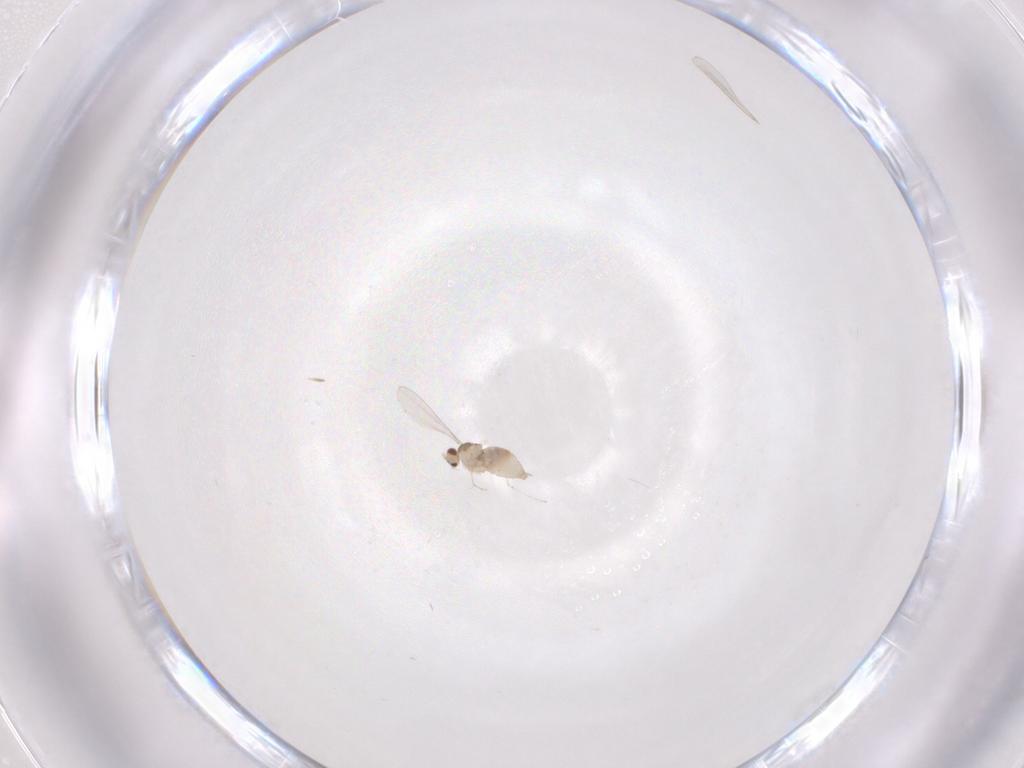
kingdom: Animalia
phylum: Arthropoda
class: Insecta
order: Diptera
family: Cecidomyiidae
